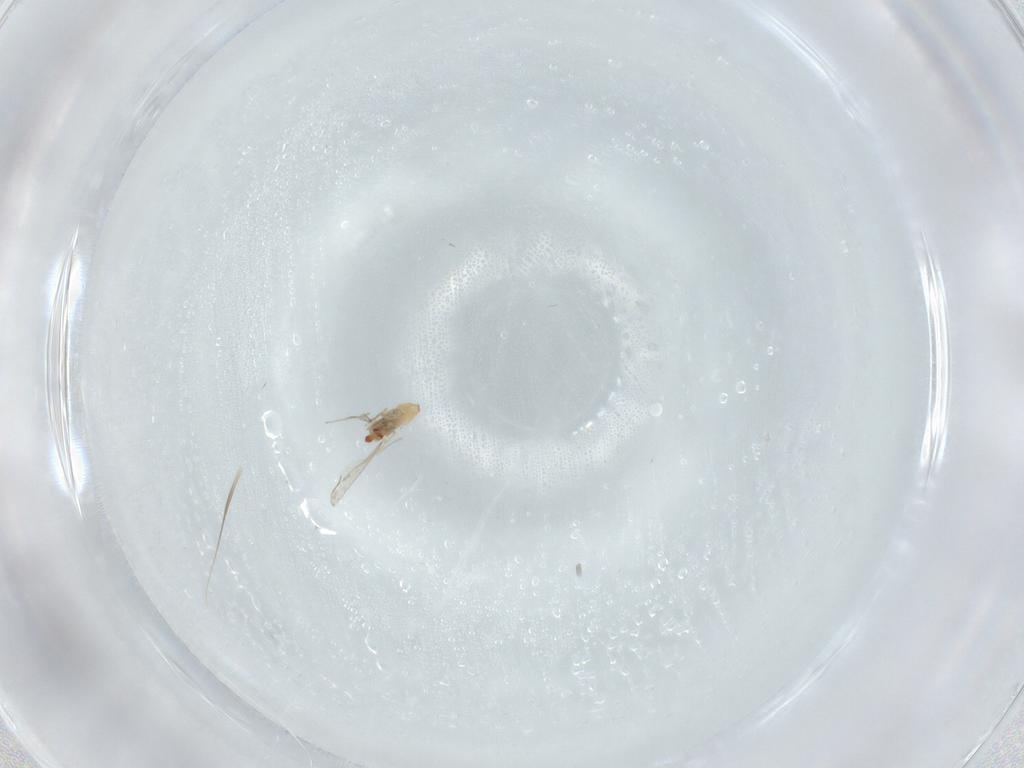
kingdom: Animalia
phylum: Arthropoda
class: Insecta
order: Diptera
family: Cecidomyiidae
